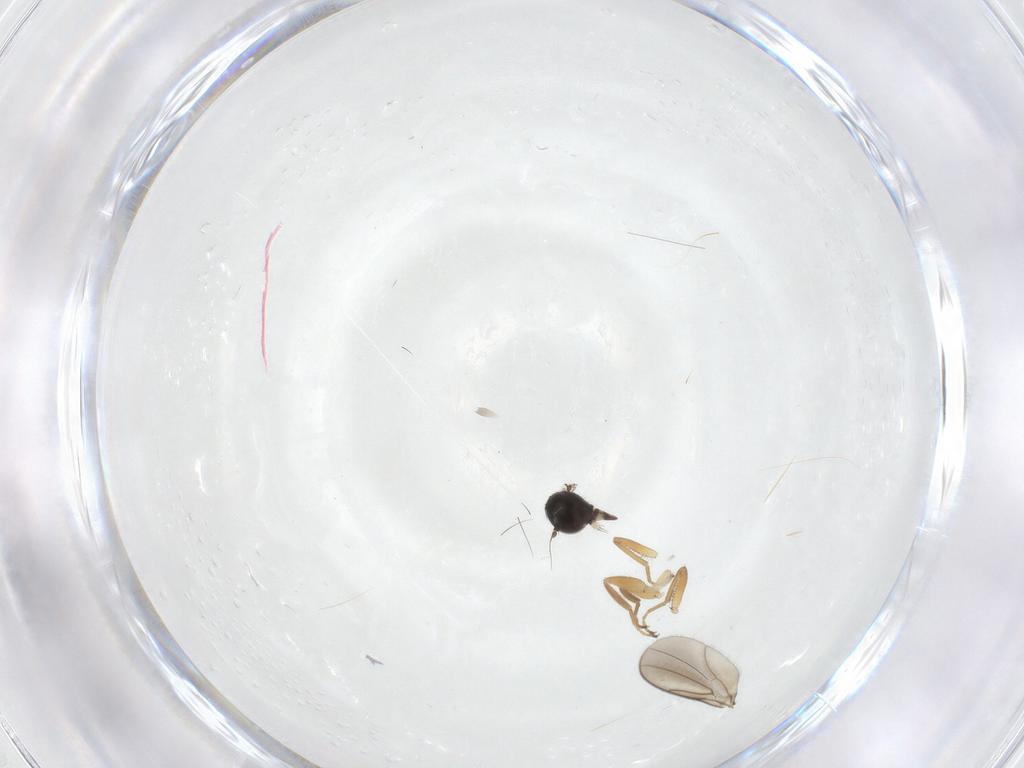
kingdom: Animalia
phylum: Arthropoda
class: Insecta
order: Diptera
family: Hybotidae
